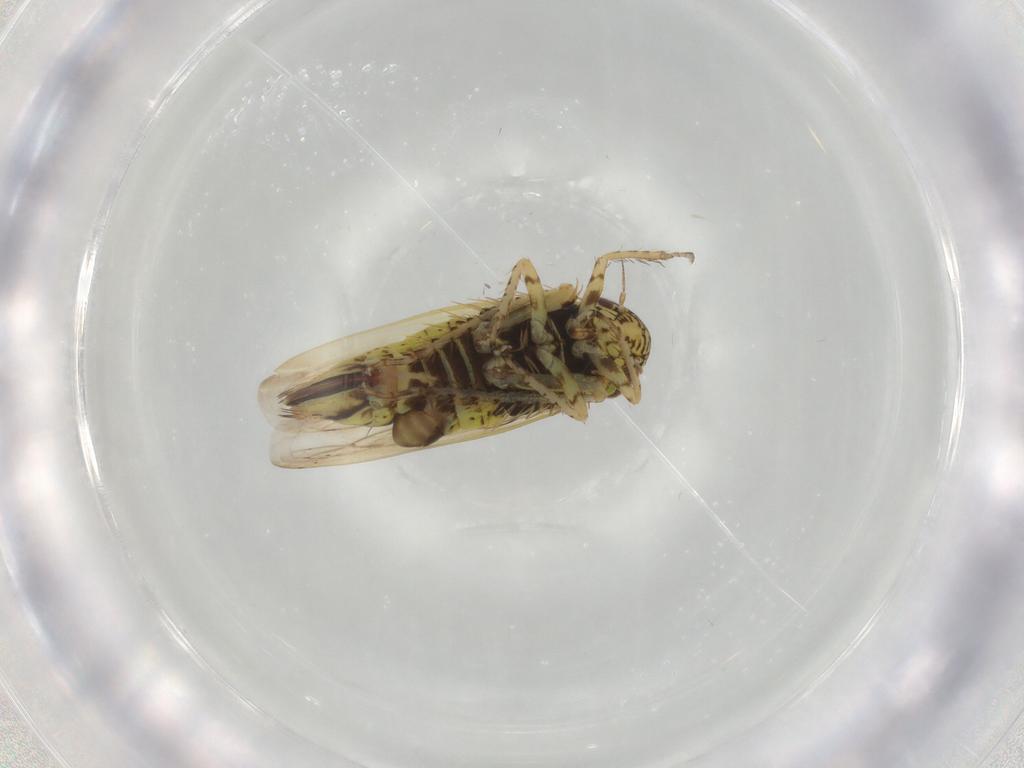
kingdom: Animalia
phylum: Arthropoda
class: Insecta
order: Hemiptera
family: Cicadellidae
